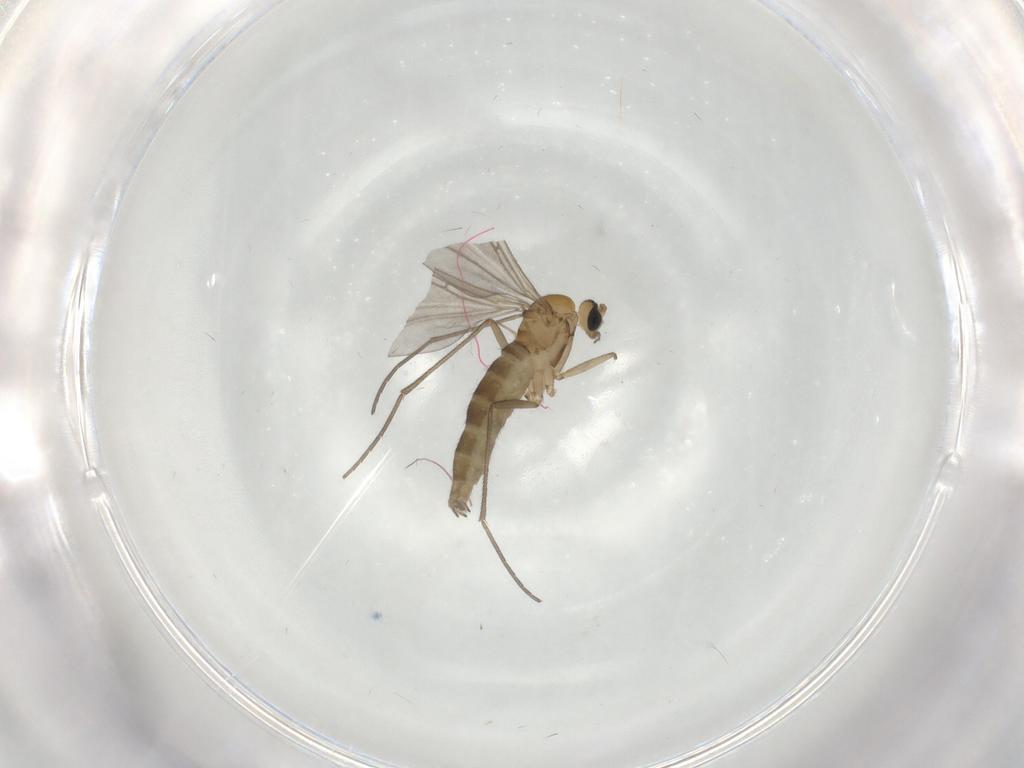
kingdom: Animalia
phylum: Arthropoda
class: Insecta
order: Diptera
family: Sciaridae
